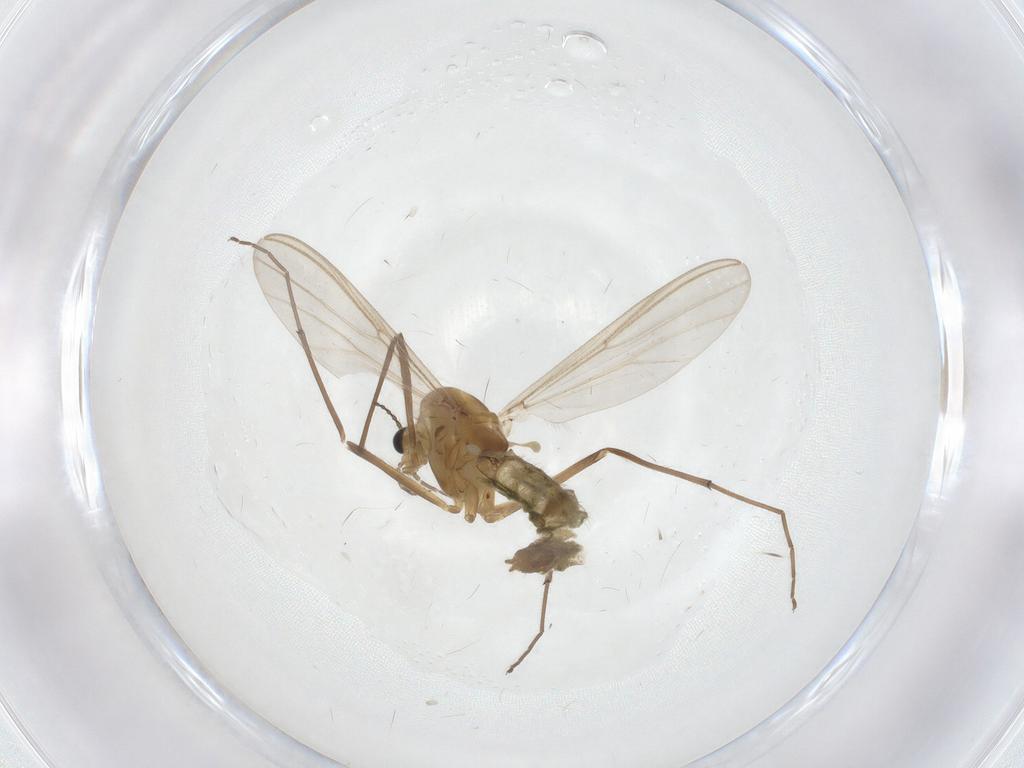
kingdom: Animalia
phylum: Arthropoda
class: Insecta
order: Diptera
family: Chironomidae
